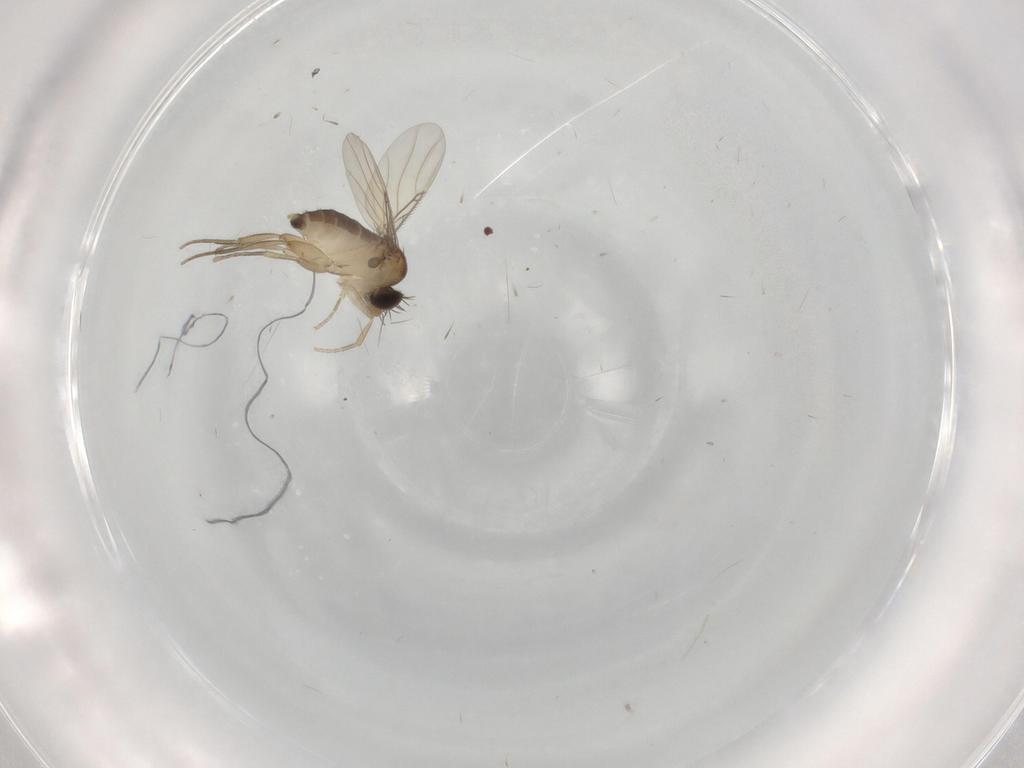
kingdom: Animalia
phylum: Arthropoda
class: Insecta
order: Diptera
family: Phoridae
